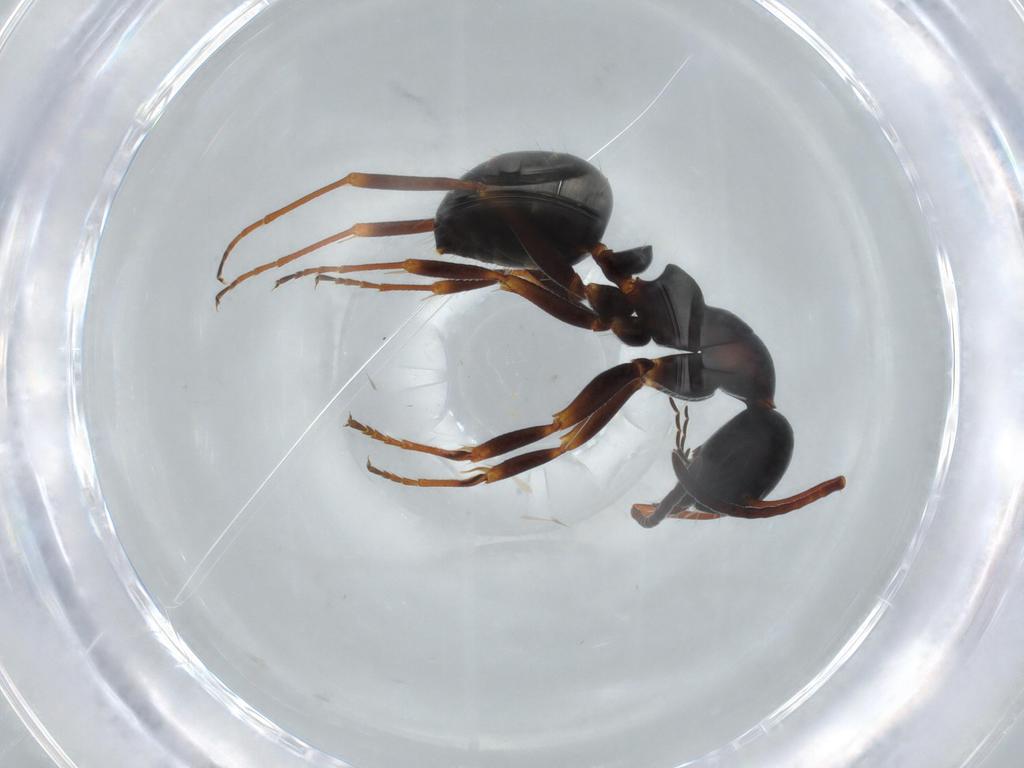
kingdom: Animalia
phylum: Arthropoda
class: Insecta
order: Hymenoptera
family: Formicidae
